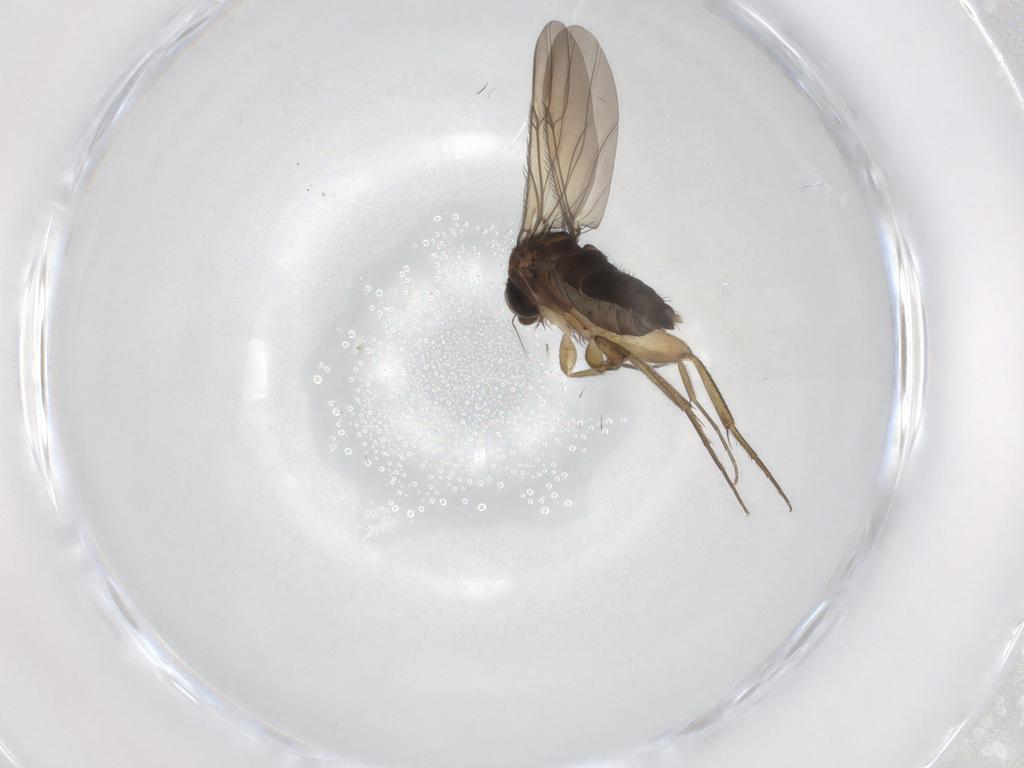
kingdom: Animalia
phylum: Arthropoda
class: Insecta
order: Diptera
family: Phoridae
